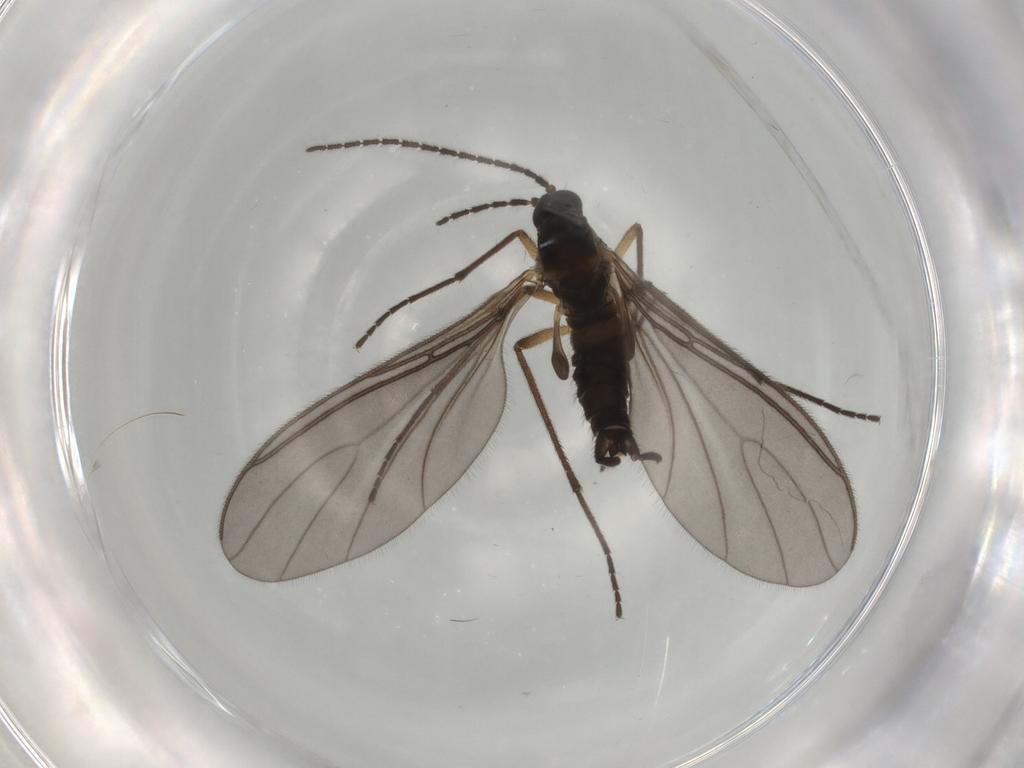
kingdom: Animalia
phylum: Arthropoda
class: Insecta
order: Diptera
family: Sciaridae
